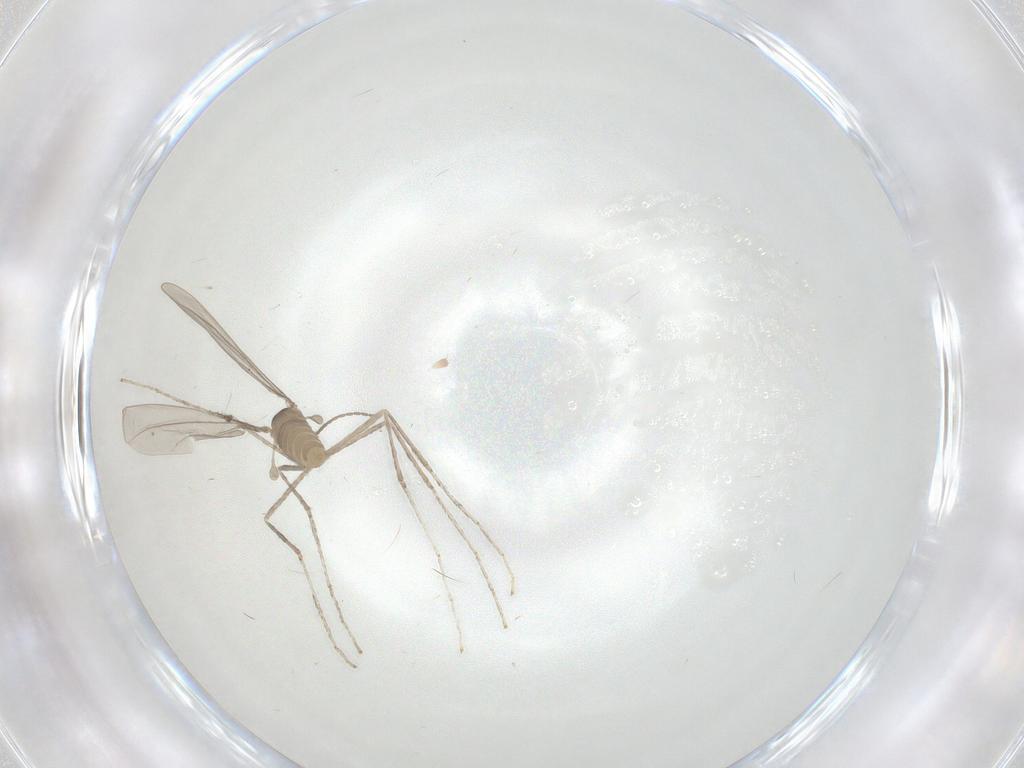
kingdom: Animalia
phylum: Arthropoda
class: Insecta
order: Diptera
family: Cecidomyiidae
